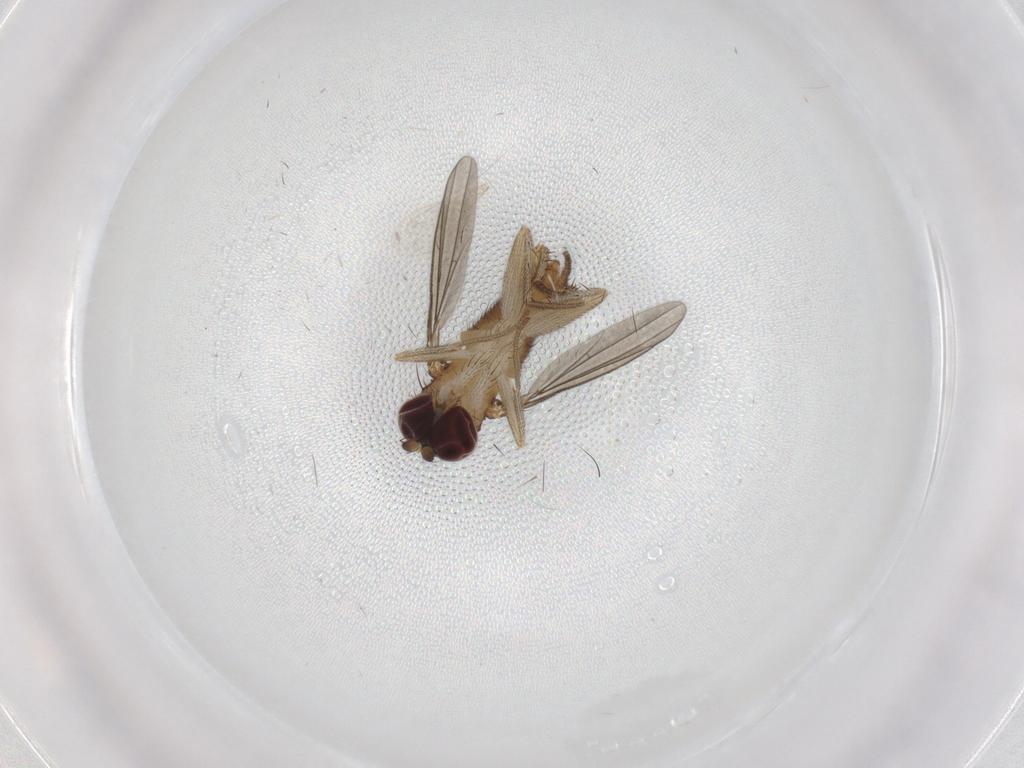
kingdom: Animalia
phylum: Arthropoda
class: Insecta
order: Diptera
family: Dolichopodidae
